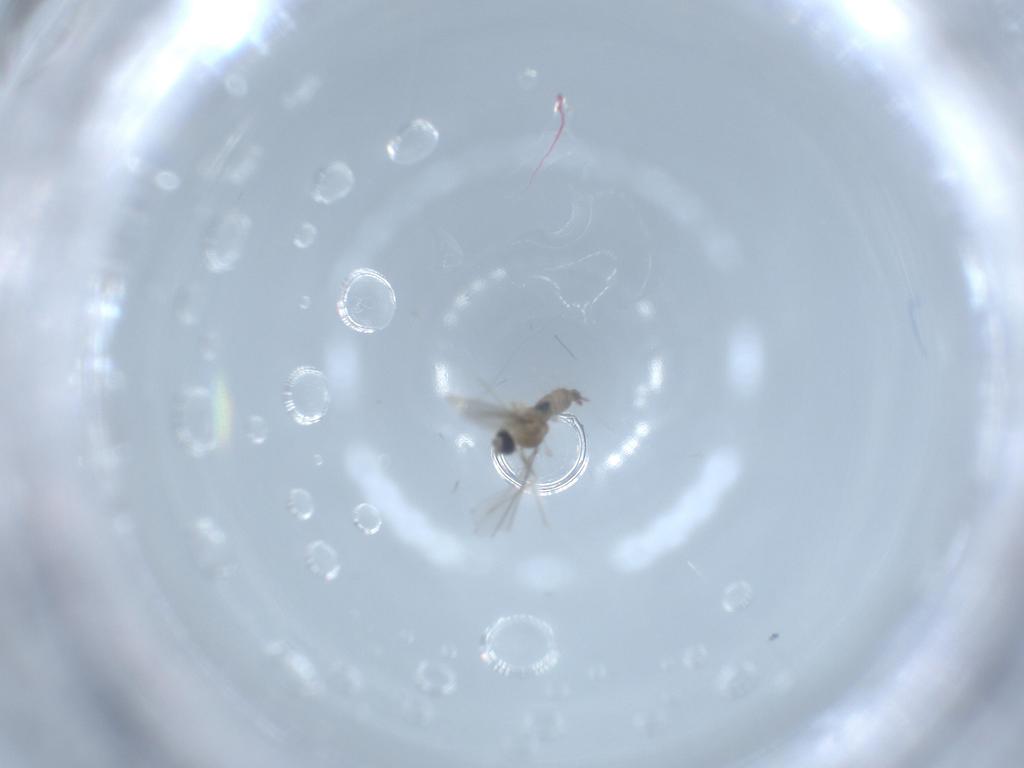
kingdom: Animalia
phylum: Arthropoda
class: Insecta
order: Diptera
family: Cecidomyiidae
